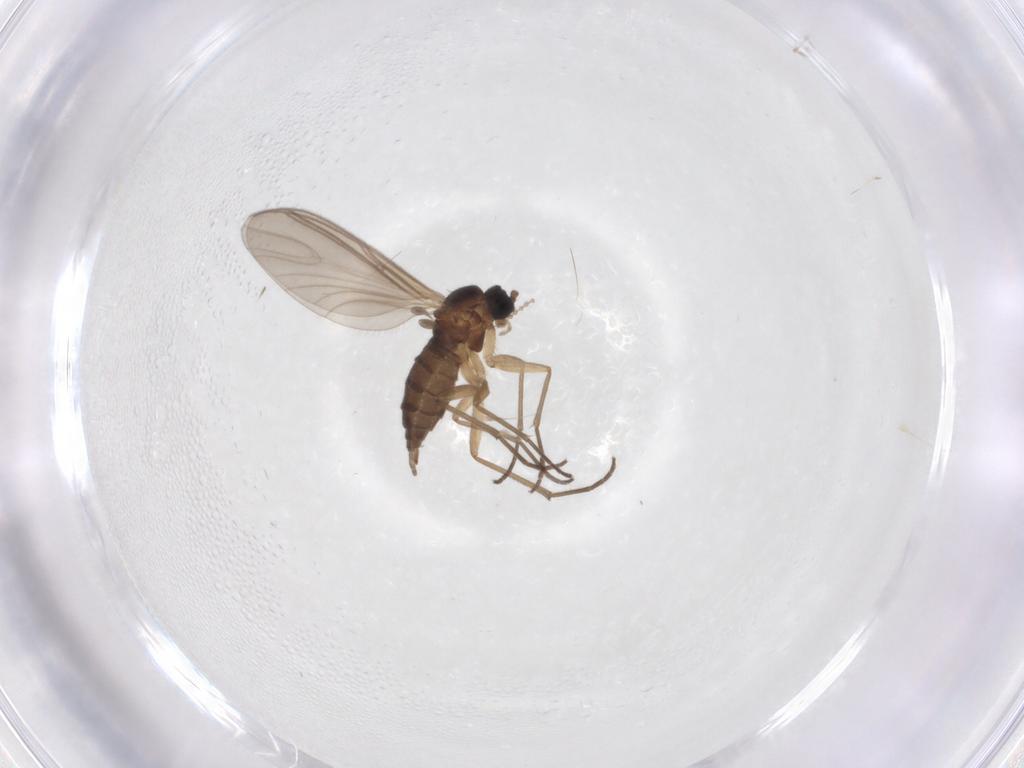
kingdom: Animalia
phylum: Arthropoda
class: Insecta
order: Diptera
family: Sciaridae
